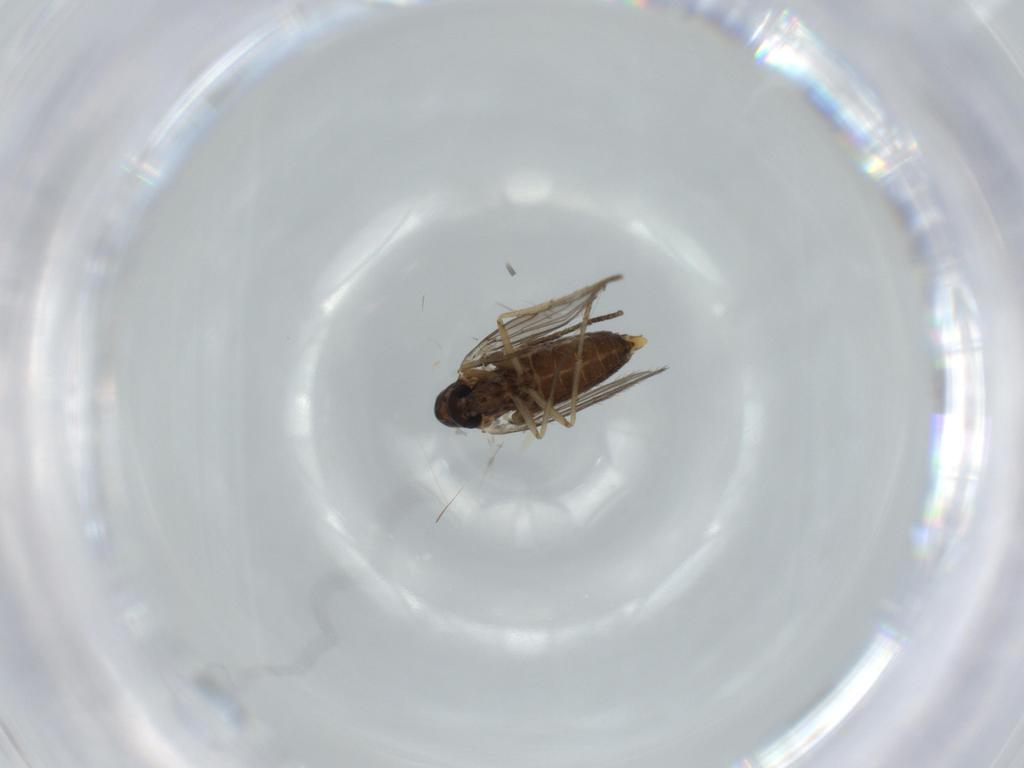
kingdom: Animalia
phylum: Arthropoda
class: Insecta
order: Diptera
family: Psychodidae
